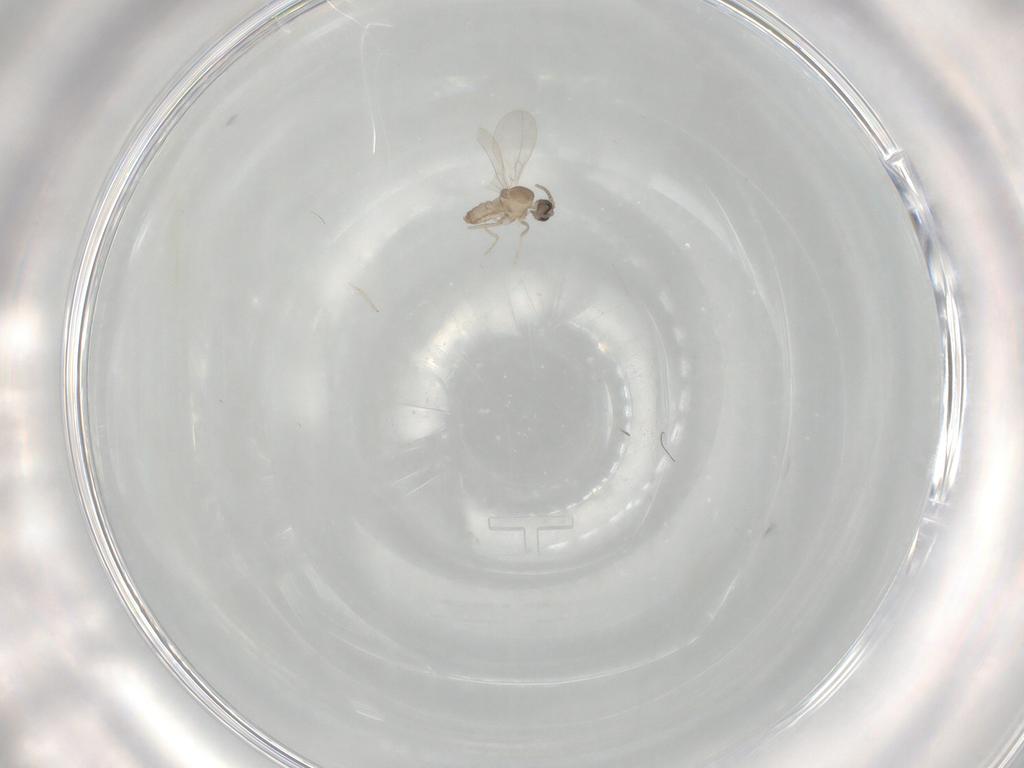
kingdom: Animalia
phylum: Arthropoda
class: Insecta
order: Diptera
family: Cecidomyiidae
